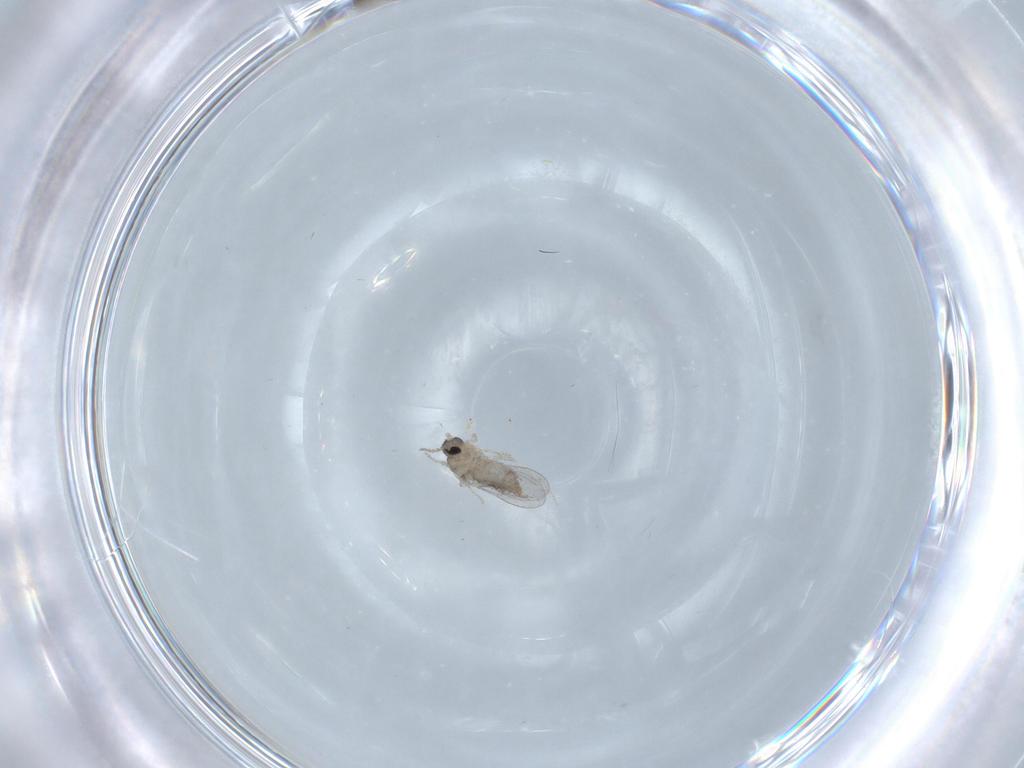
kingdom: Animalia
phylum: Arthropoda
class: Insecta
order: Diptera
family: Cecidomyiidae
